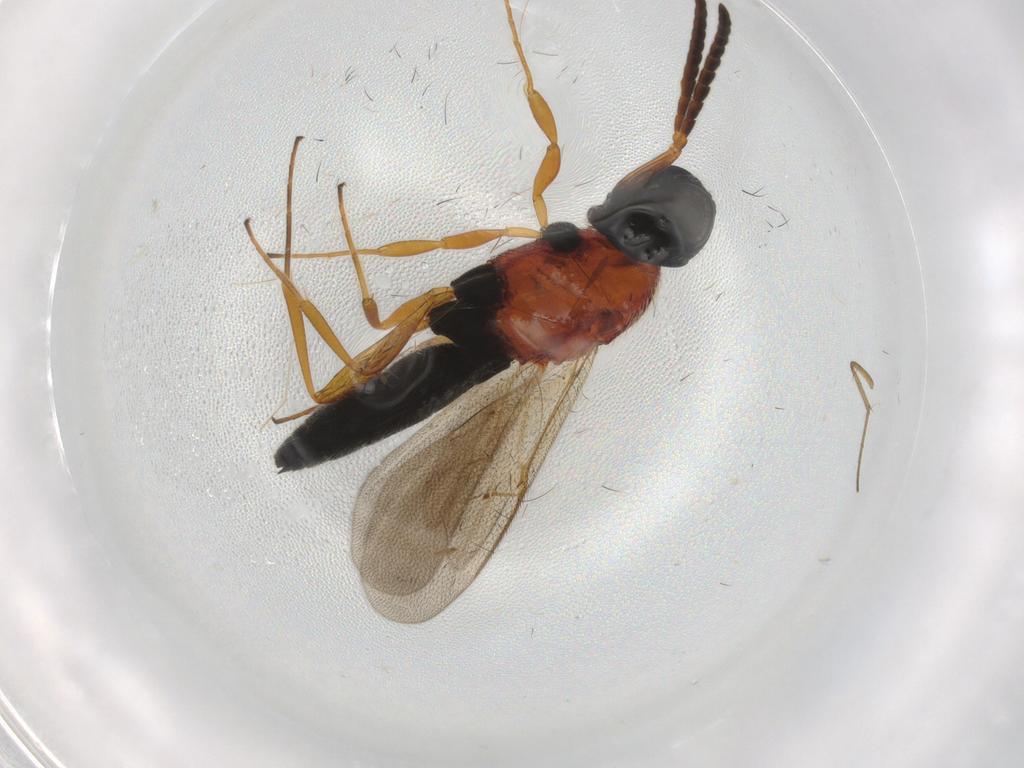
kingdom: Animalia
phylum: Arthropoda
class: Insecta
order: Hymenoptera
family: Scelionidae
